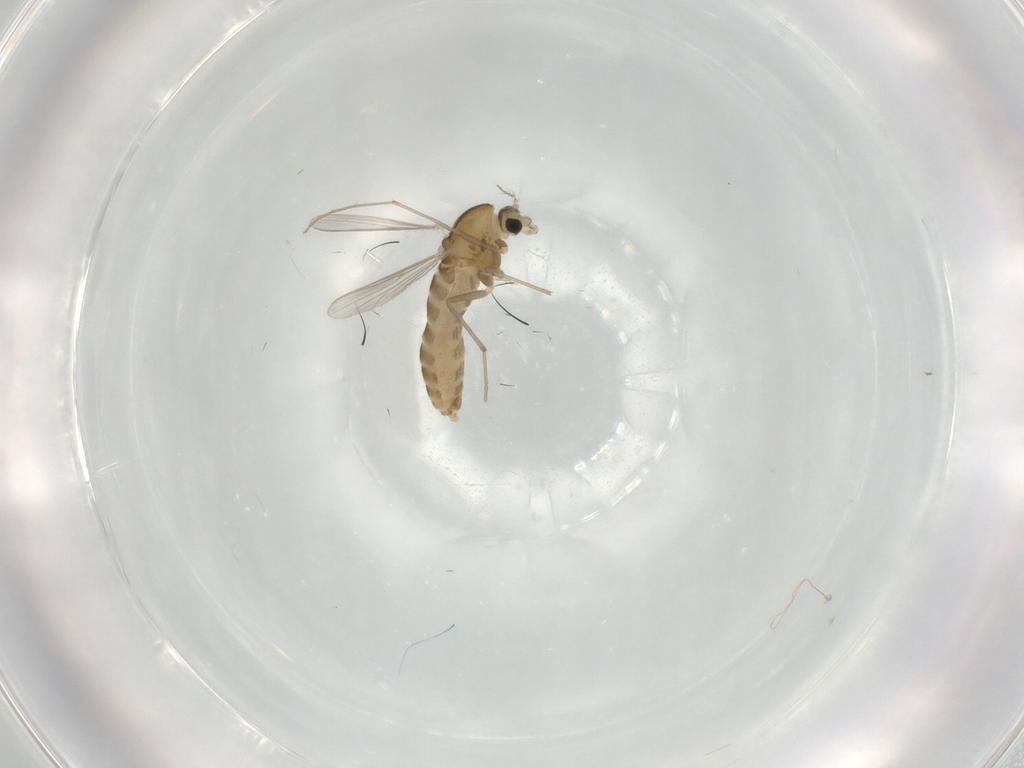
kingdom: Animalia
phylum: Arthropoda
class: Insecta
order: Diptera
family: Chironomidae
